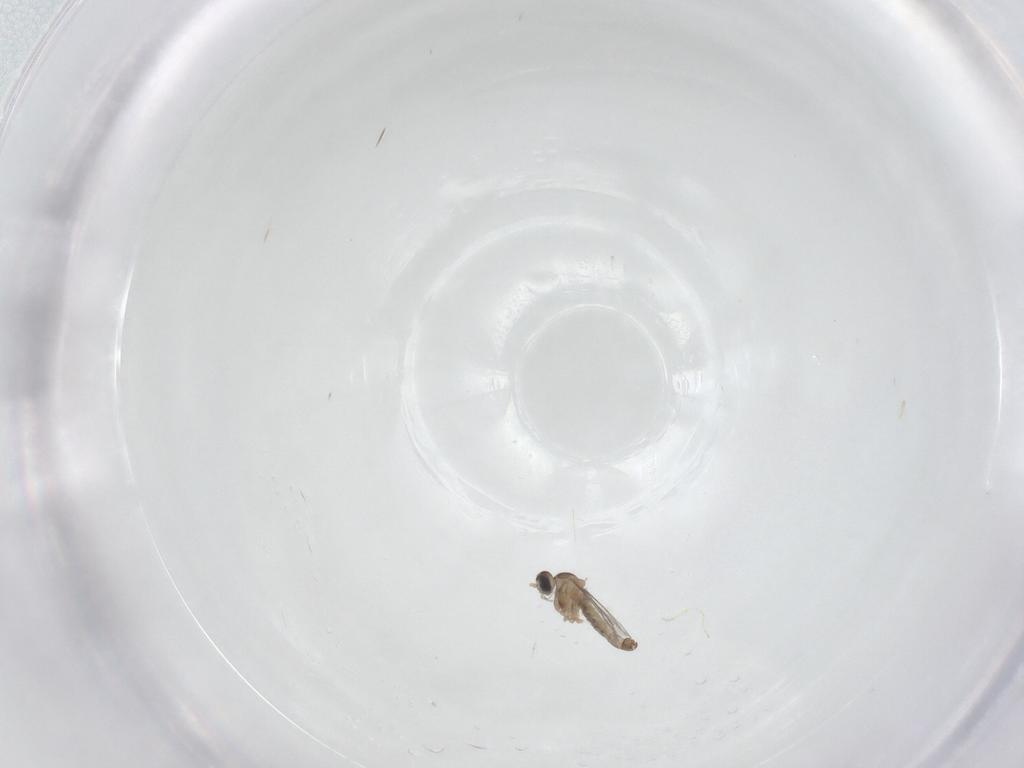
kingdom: Animalia
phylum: Arthropoda
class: Insecta
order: Diptera
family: Cecidomyiidae
